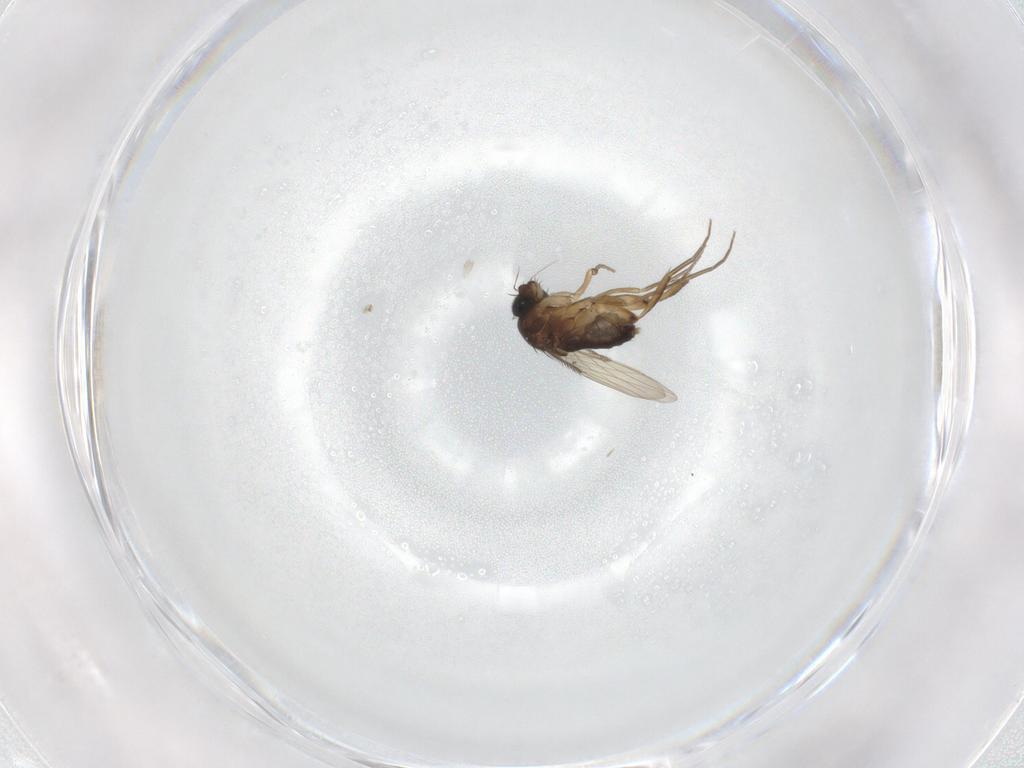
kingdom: Animalia
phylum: Arthropoda
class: Insecta
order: Diptera
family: Phoridae
